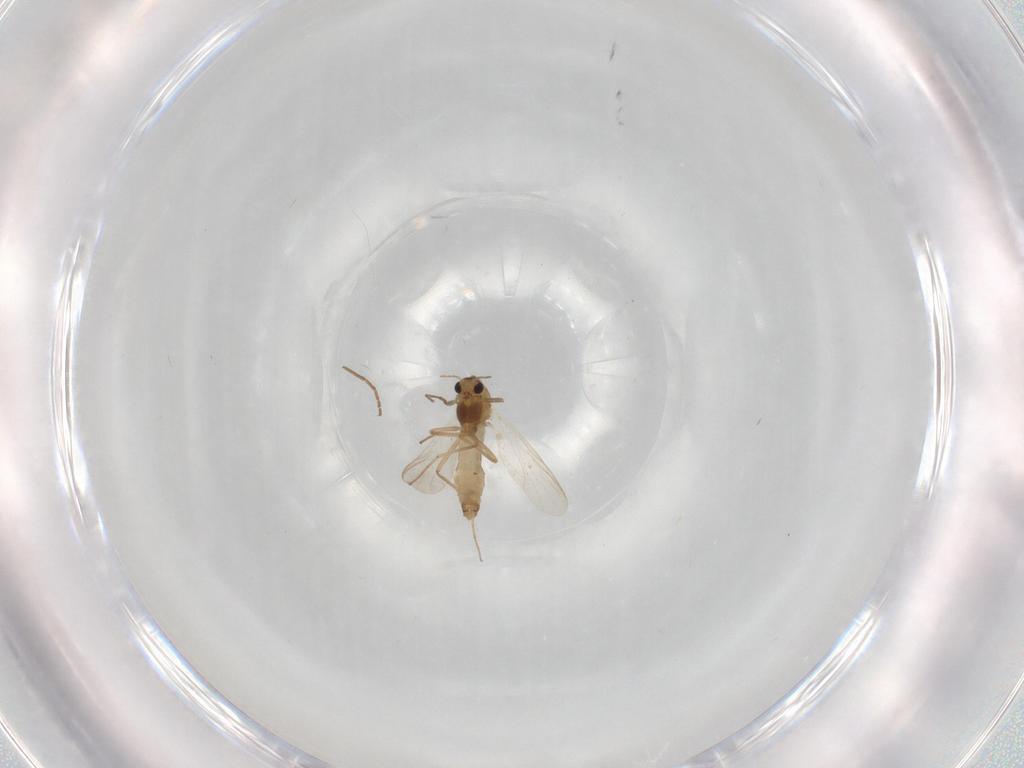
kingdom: Animalia
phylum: Arthropoda
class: Insecta
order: Diptera
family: Chironomidae
